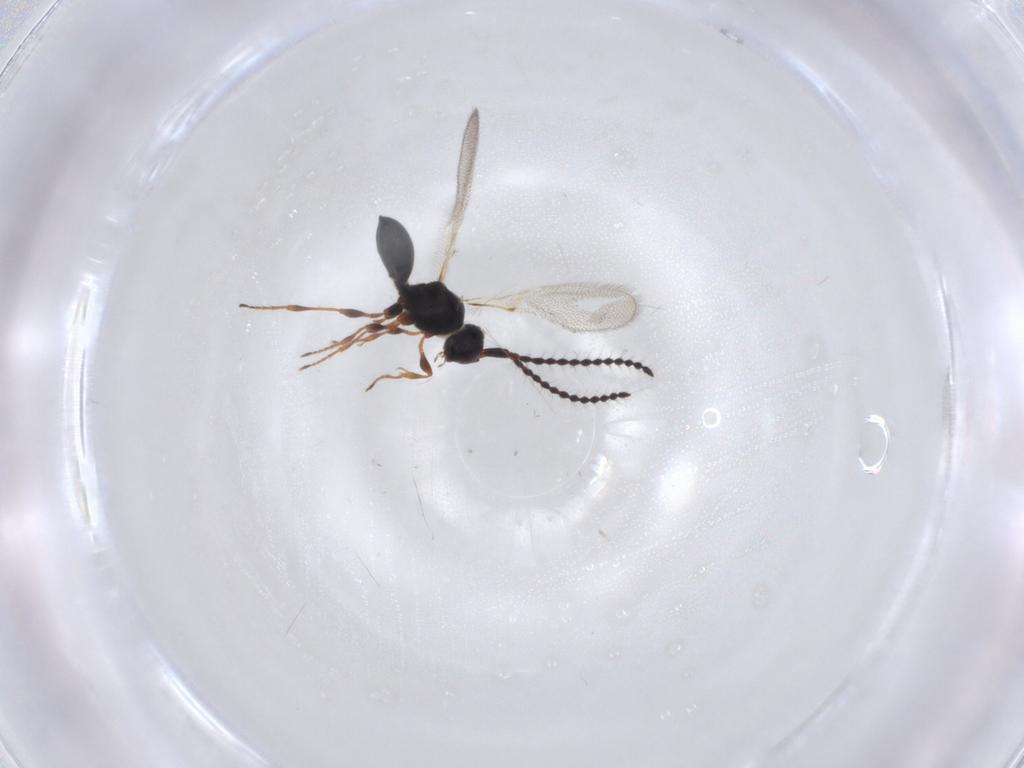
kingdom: Animalia
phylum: Arthropoda
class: Insecta
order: Hymenoptera
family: Diapriidae
